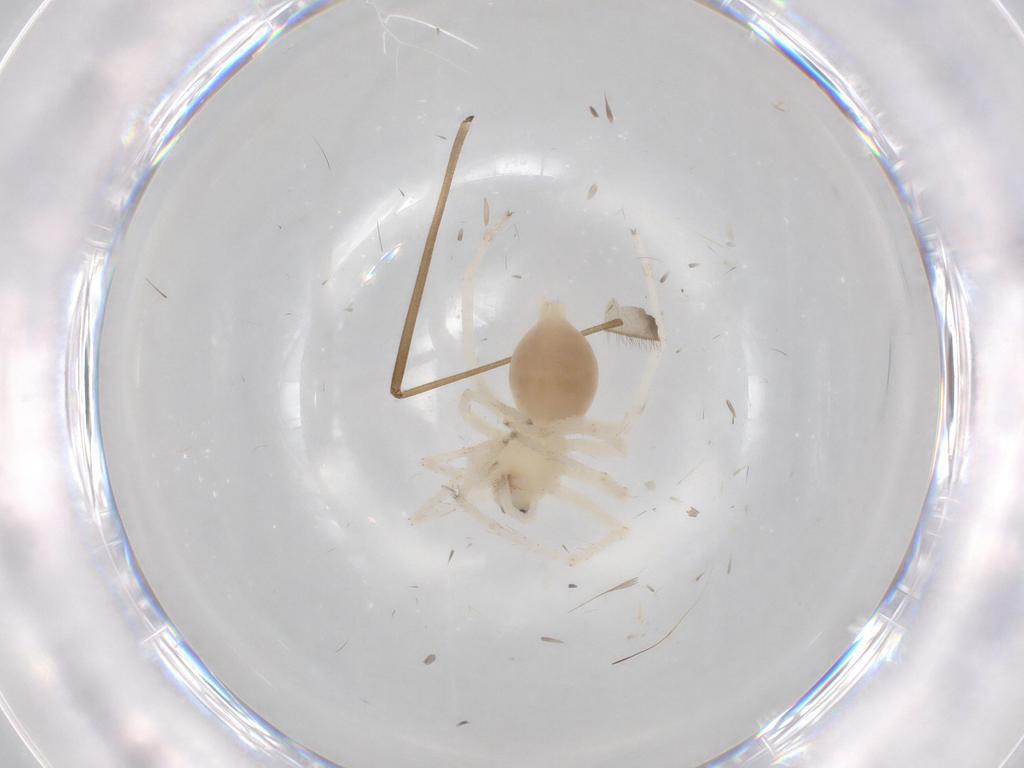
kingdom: Animalia
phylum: Arthropoda
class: Arachnida
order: Araneae
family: Anyphaenidae
